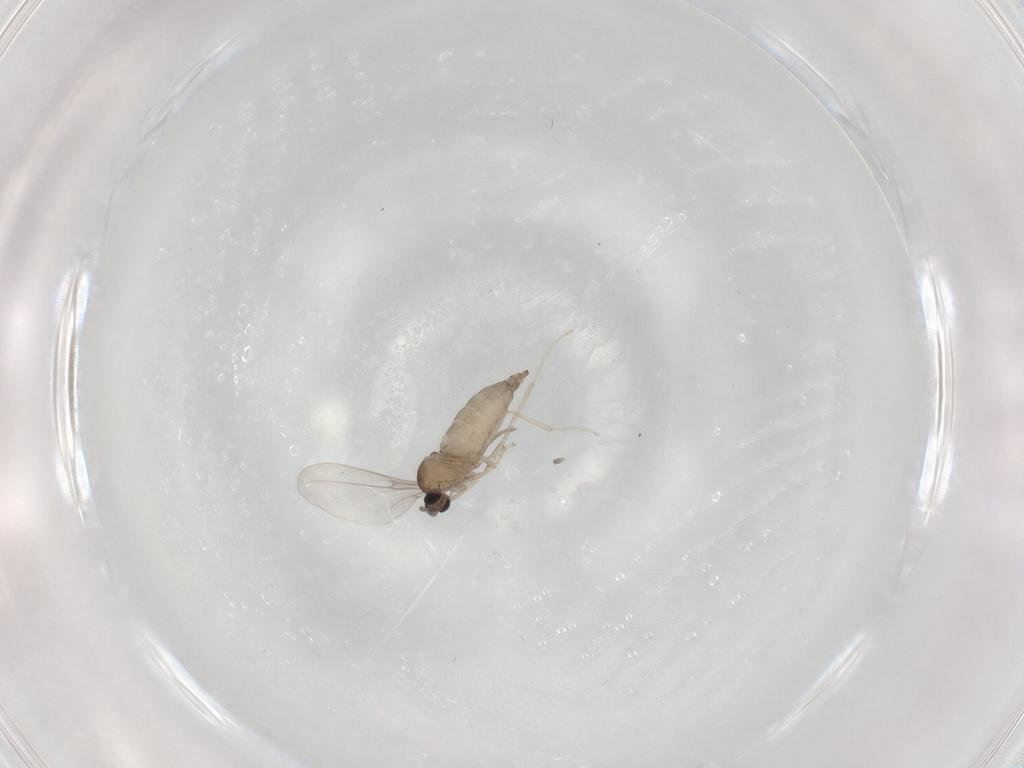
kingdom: Animalia
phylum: Arthropoda
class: Insecta
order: Diptera
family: Cecidomyiidae
